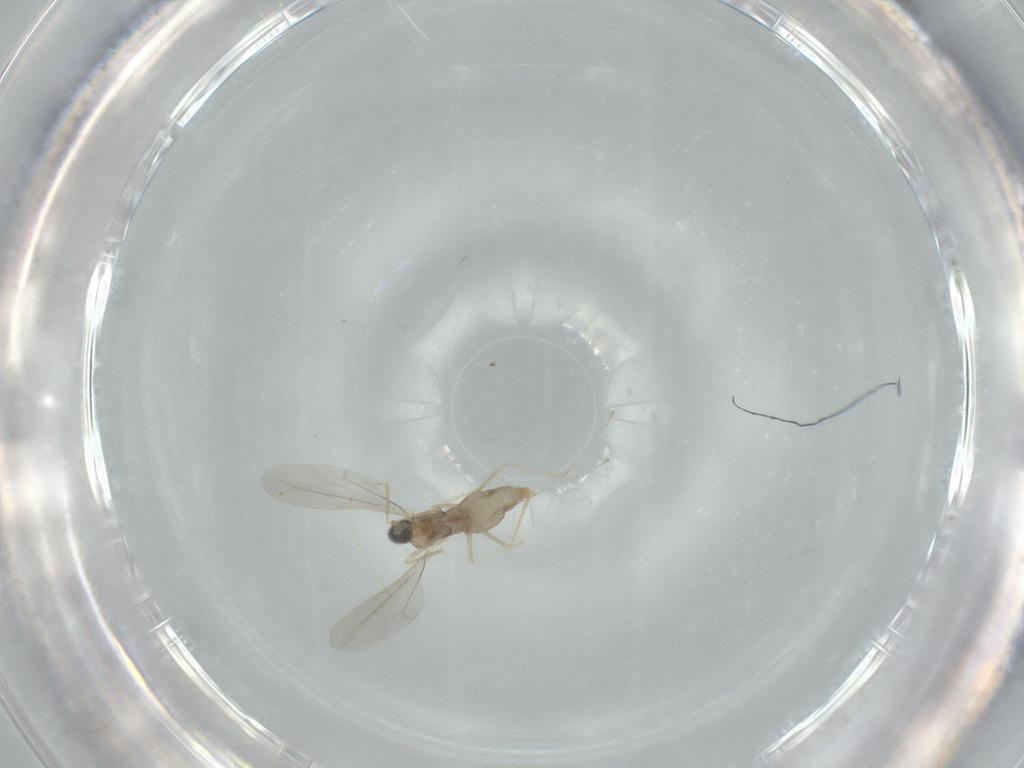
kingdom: Animalia
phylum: Arthropoda
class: Insecta
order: Diptera
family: Cecidomyiidae
